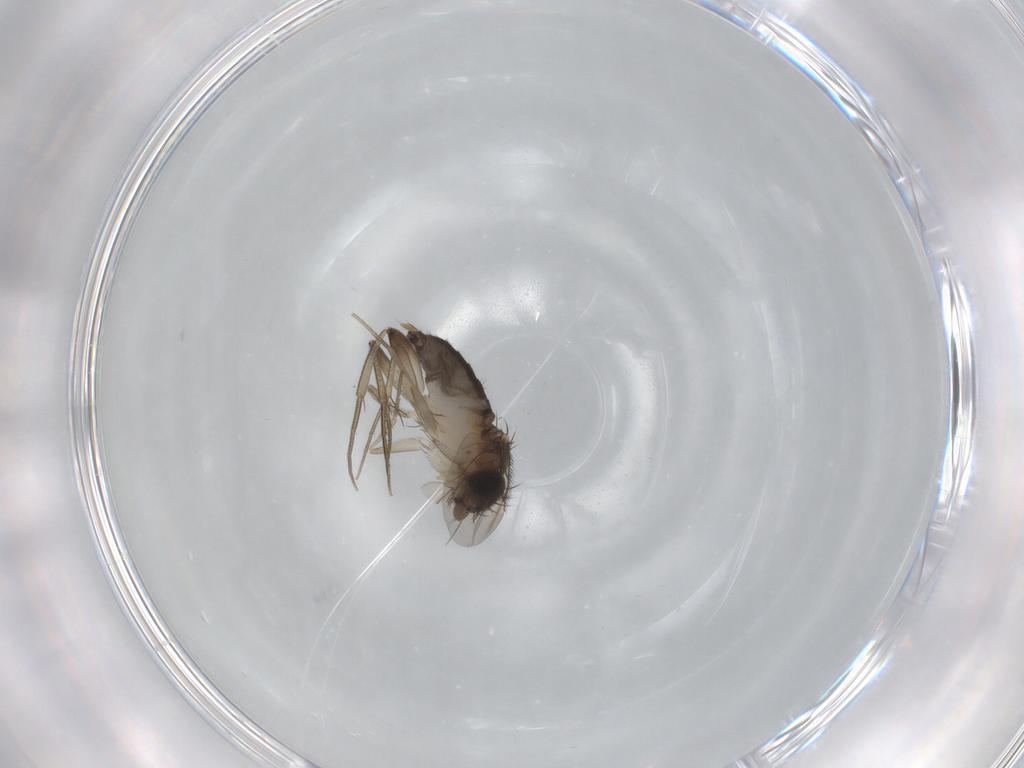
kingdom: Animalia
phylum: Arthropoda
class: Insecta
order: Diptera
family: Phoridae
